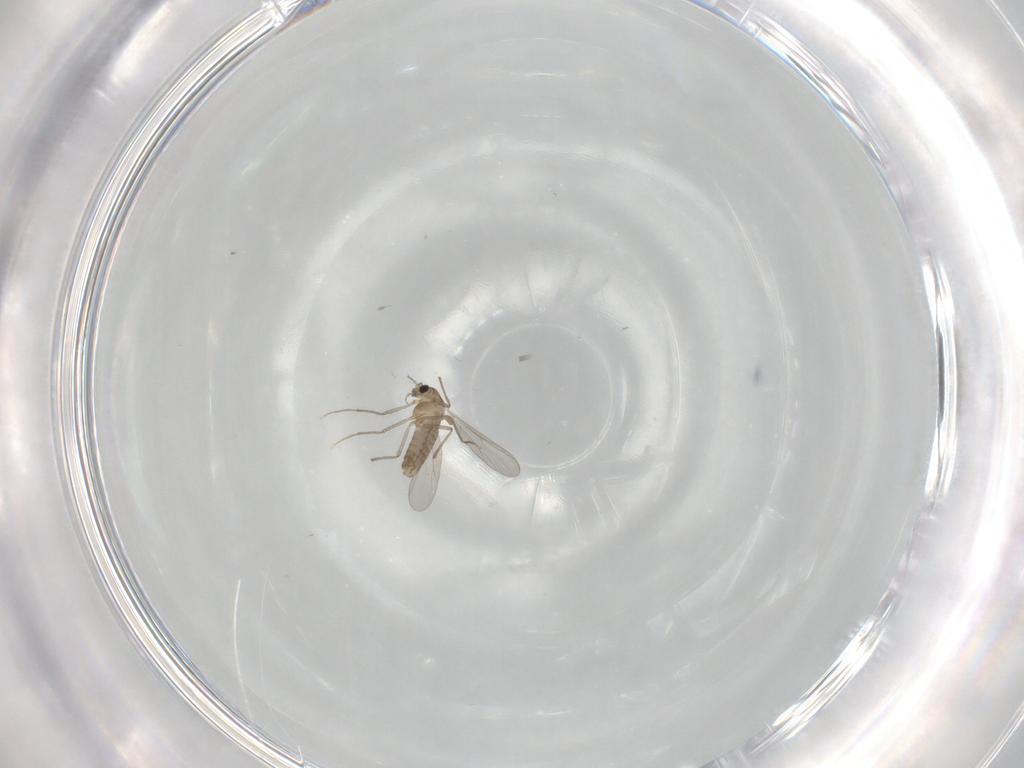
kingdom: Animalia
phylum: Arthropoda
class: Insecta
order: Diptera
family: Chironomidae
